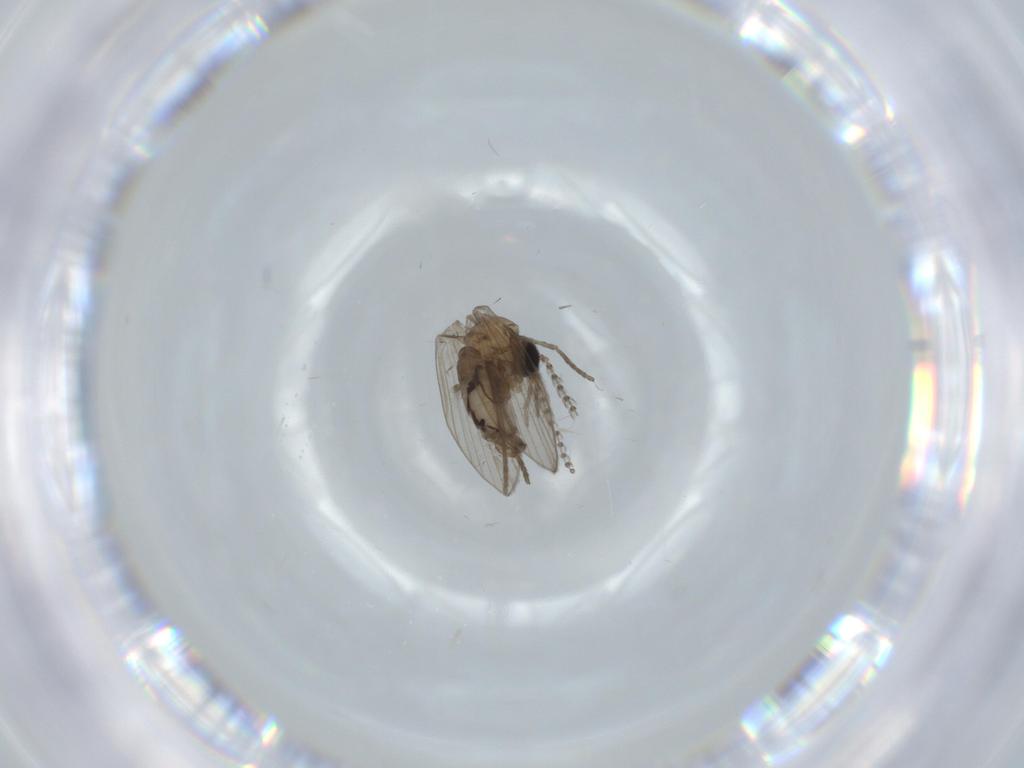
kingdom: Animalia
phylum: Arthropoda
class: Insecta
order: Diptera
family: Psychodidae
